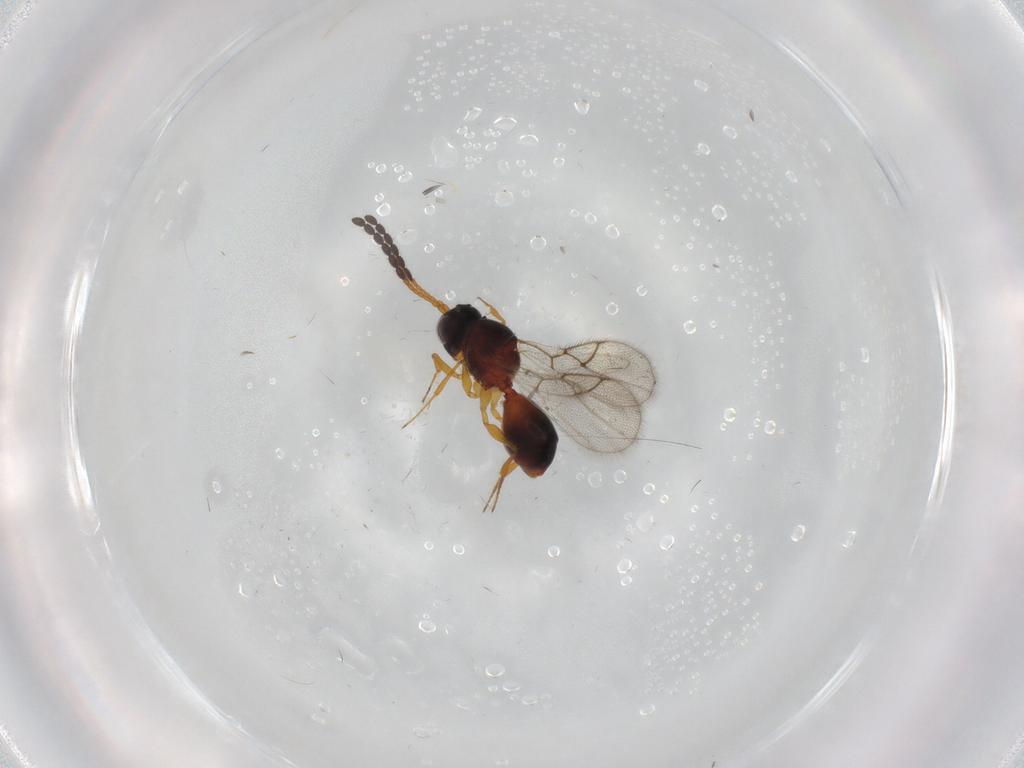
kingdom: Animalia
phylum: Arthropoda
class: Insecta
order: Hymenoptera
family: Figitidae
